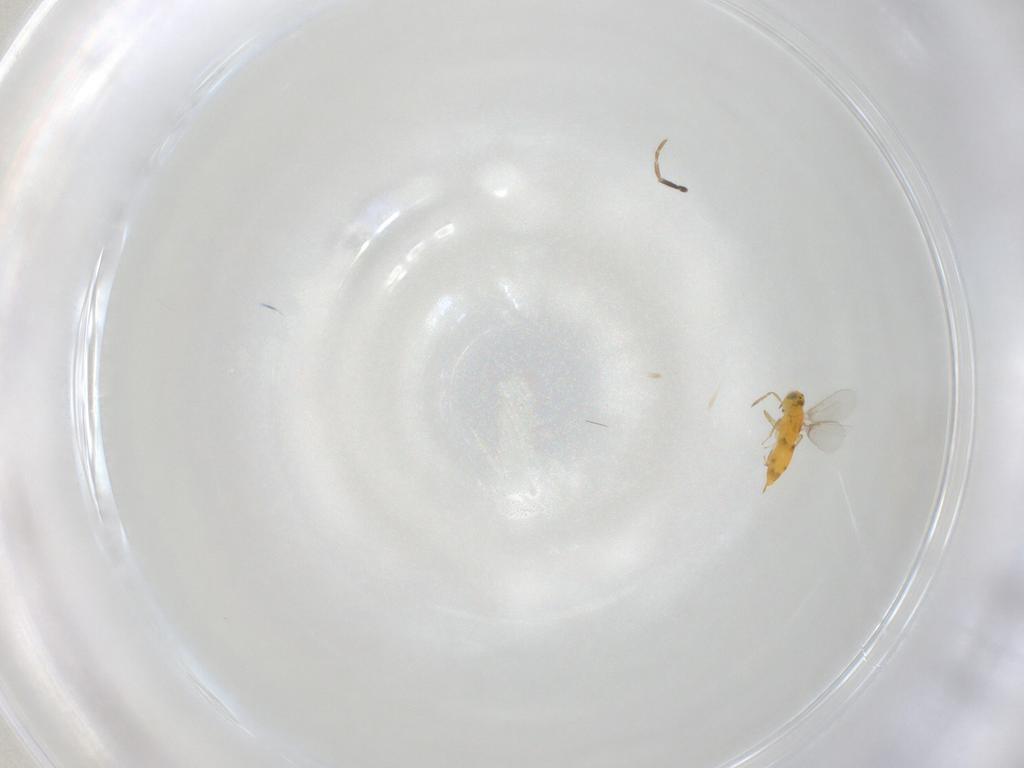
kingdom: Animalia
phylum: Arthropoda
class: Insecta
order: Hymenoptera
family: Aphelinidae
